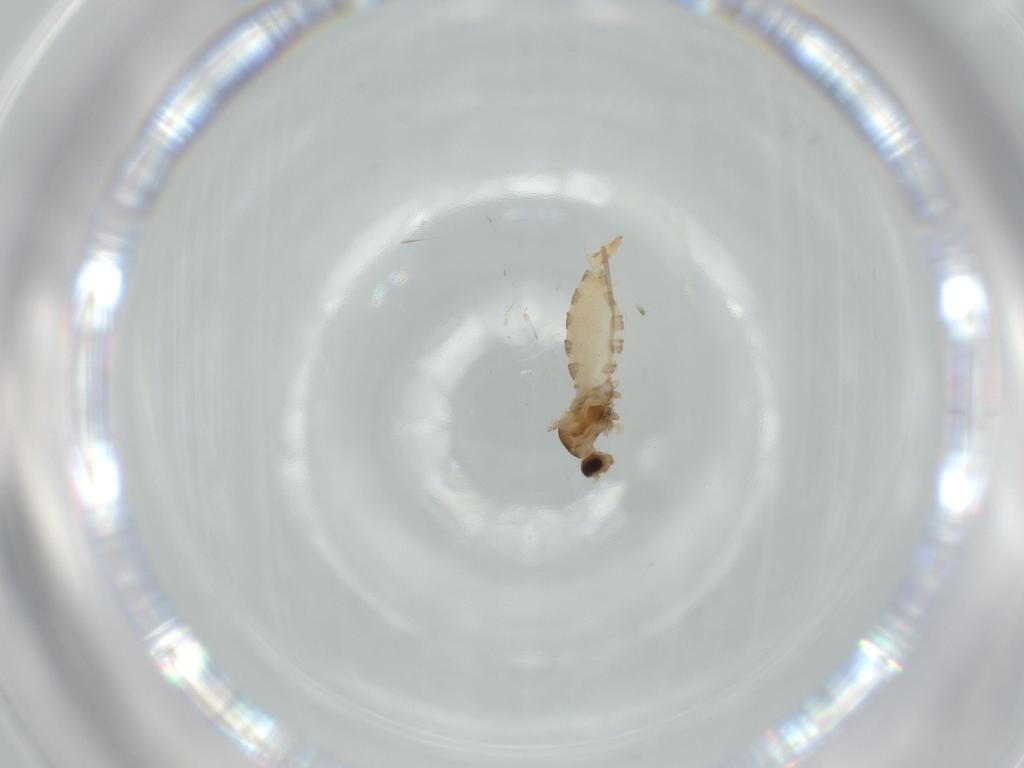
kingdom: Animalia
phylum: Arthropoda
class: Insecta
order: Diptera
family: Cecidomyiidae
